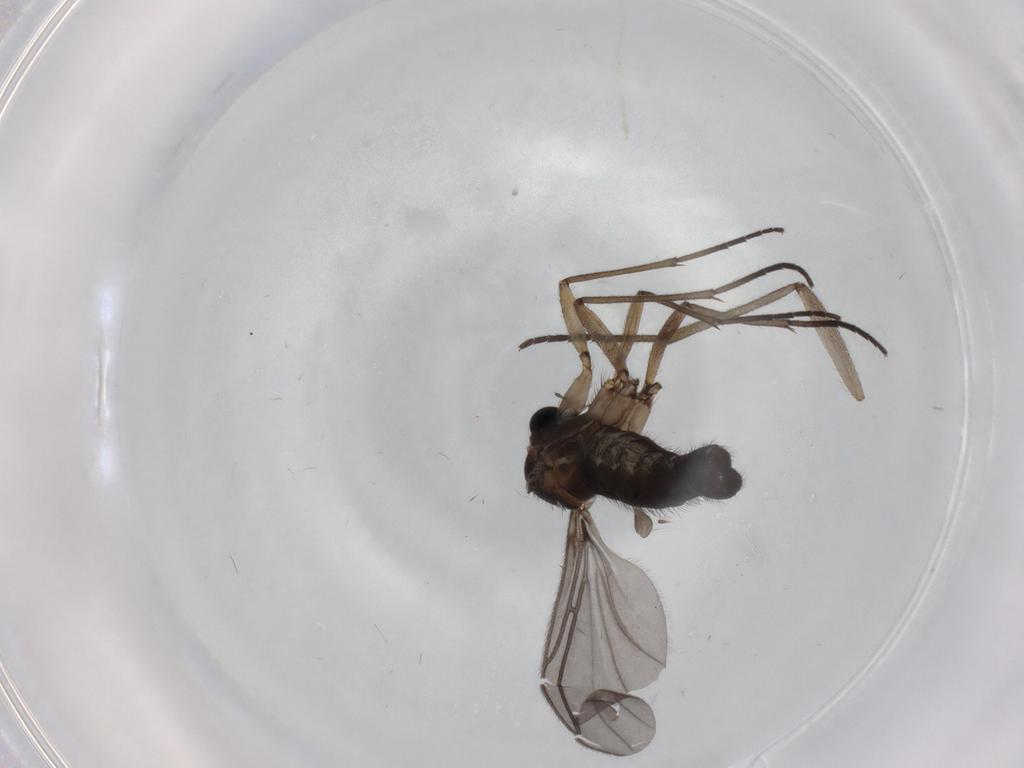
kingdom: Animalia
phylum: Arthropoda
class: Insecta
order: Diptera
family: Sciaridae
